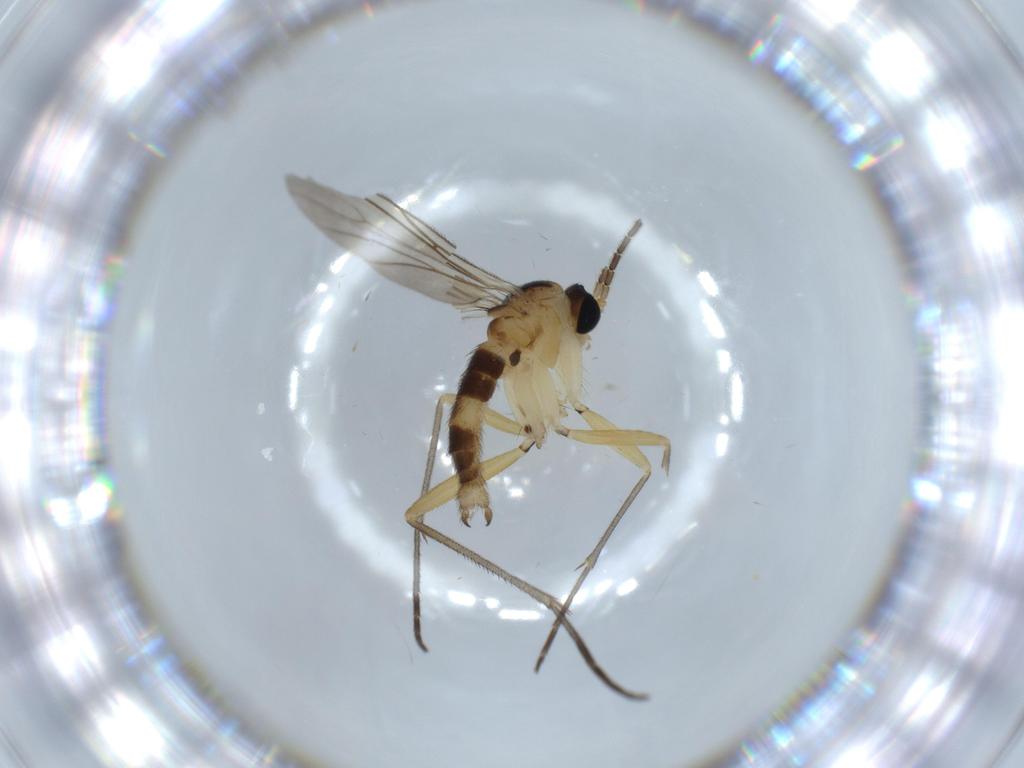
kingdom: Animalia
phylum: Arthropoda
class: Insecta
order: Diptera
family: Sciaridae
